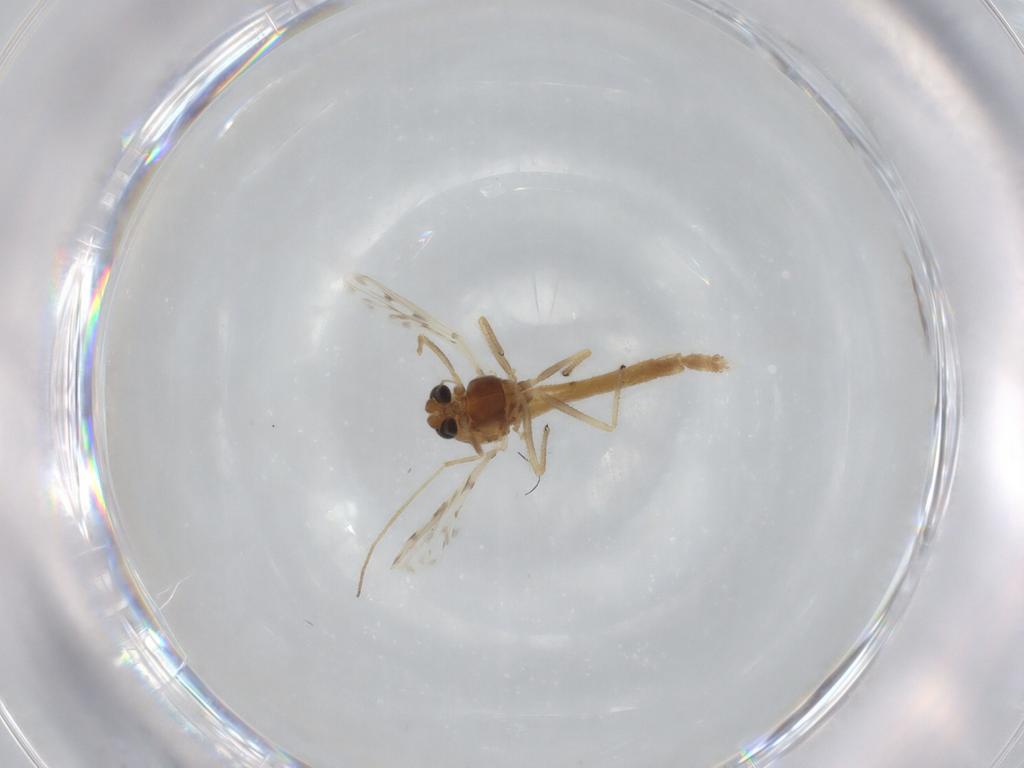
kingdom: Animalia
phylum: Arthropoda
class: Insecta
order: Diptera
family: Chironomidae
